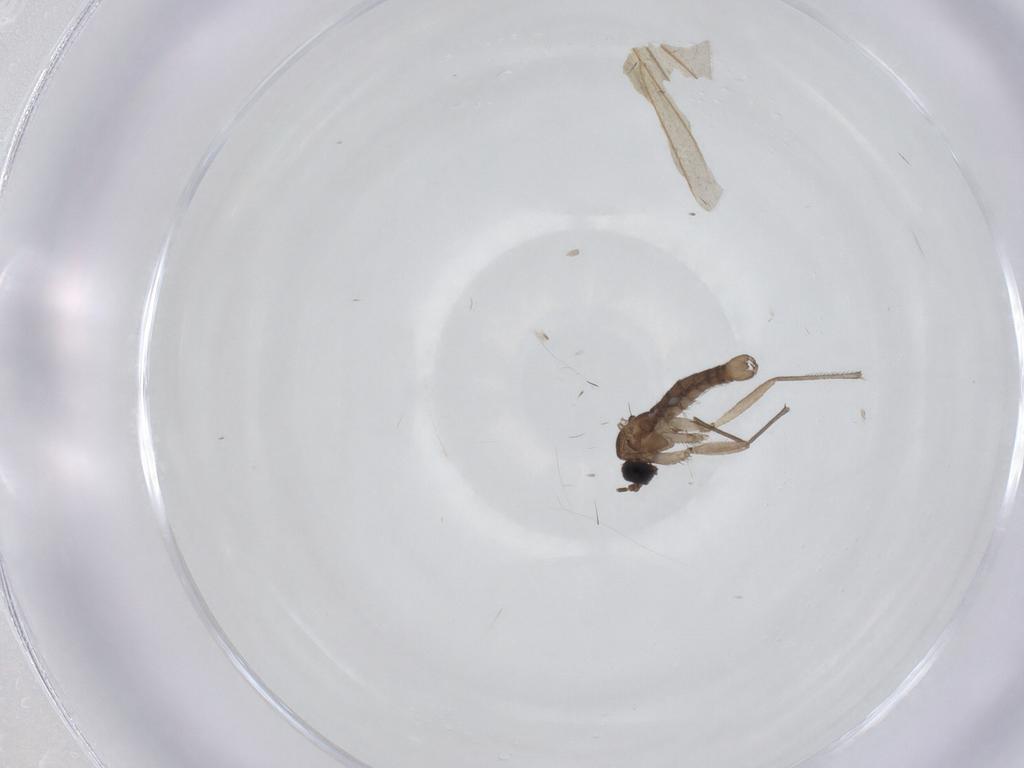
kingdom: Animalia
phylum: Arthropoda
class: Insecta
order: Diptera
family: Sciaridae
